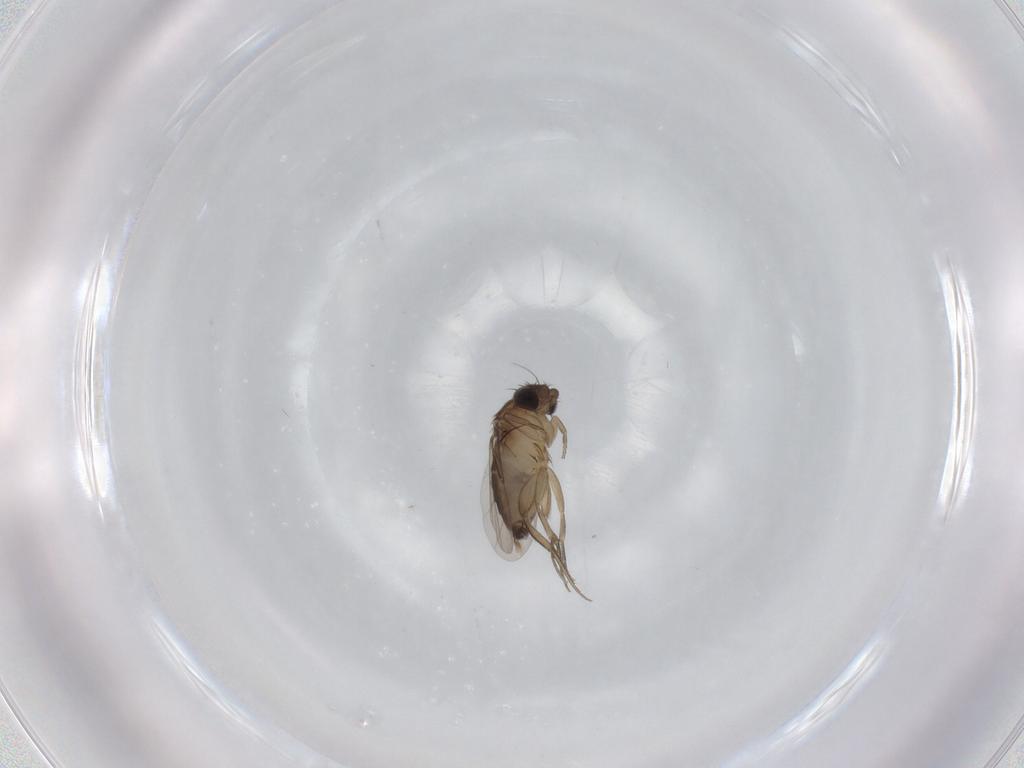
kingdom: Animalia
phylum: Arthropoda
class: Insecta
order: Diptera
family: Phoridae
